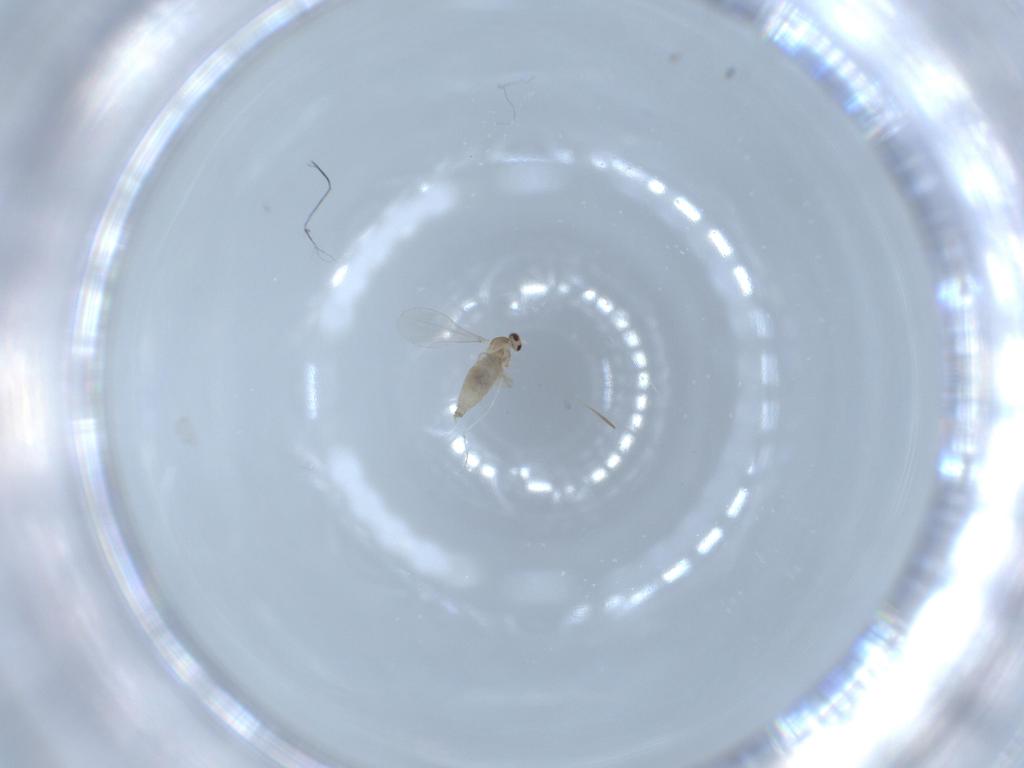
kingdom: Animalia
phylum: Arthropoda
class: Insecta
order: Diptera
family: Cecidomyiidae
